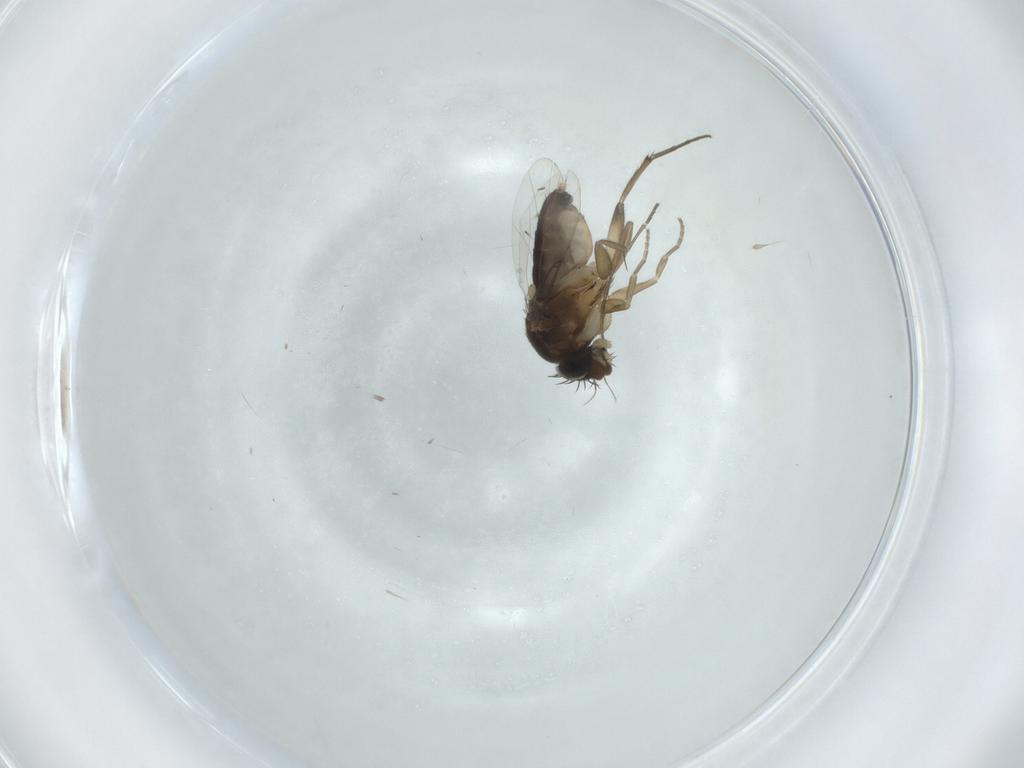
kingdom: Animalia
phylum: Arthropoda
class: Insecta
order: Diptera
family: Phoridae
